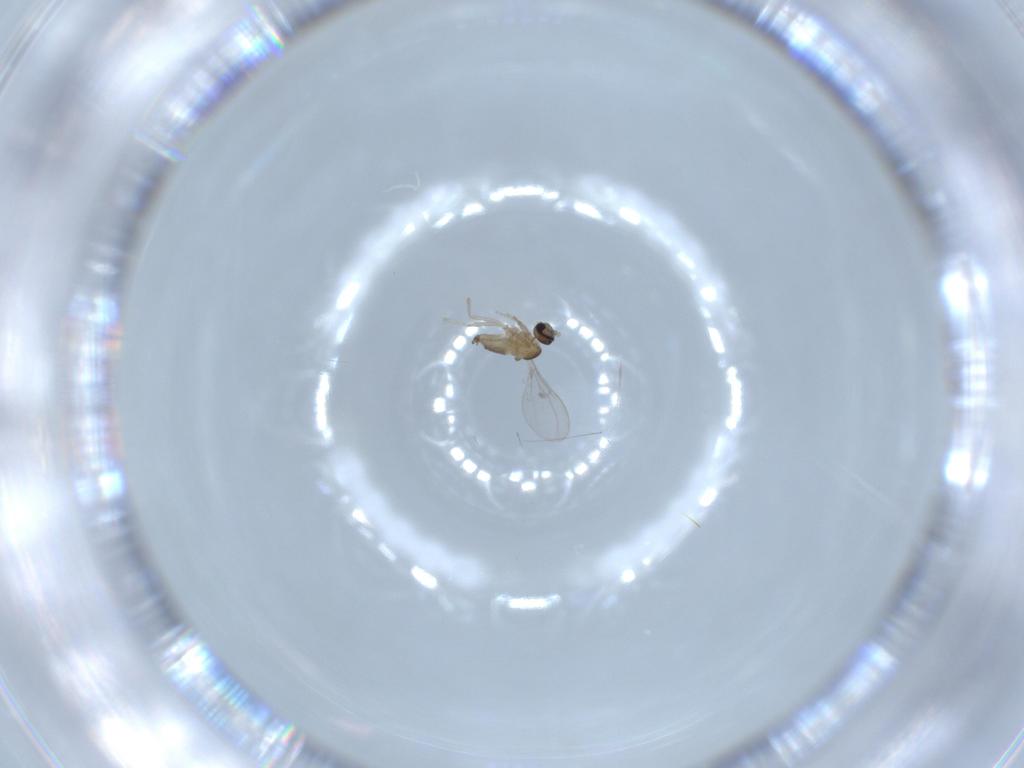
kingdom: Animalia
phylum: Arthropoda
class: Insecta
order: Diptera
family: Cecidomyiidae
